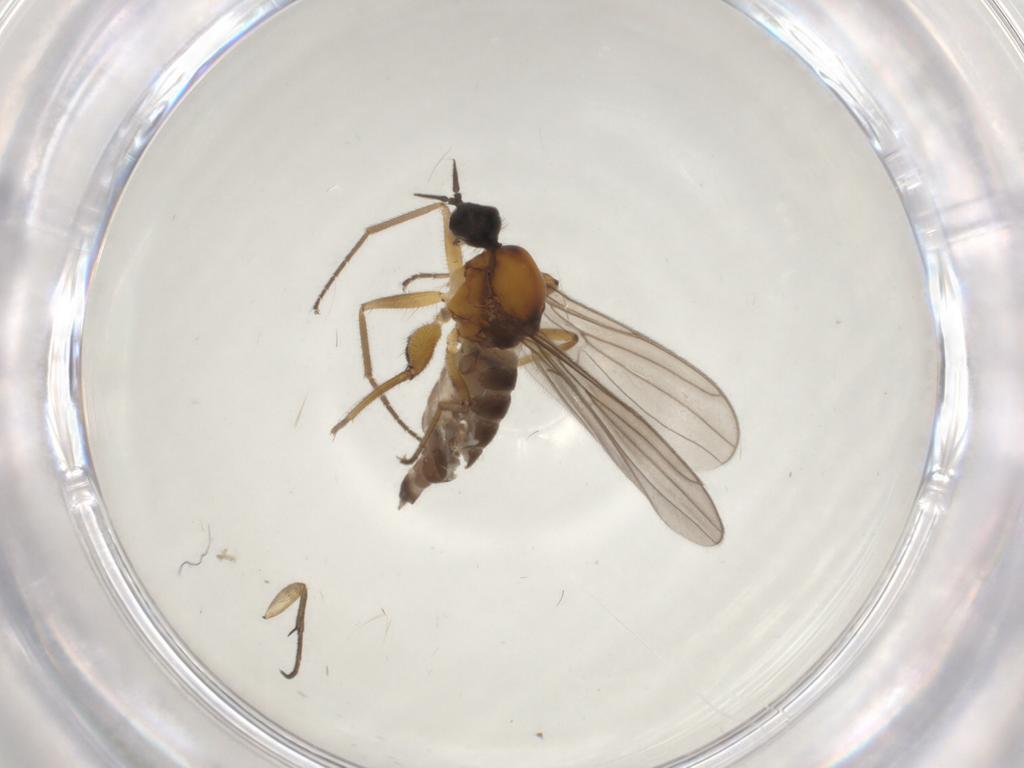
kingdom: Animalia
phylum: Arthropoda
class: Insecta
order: Diptera
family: Hybotidae
